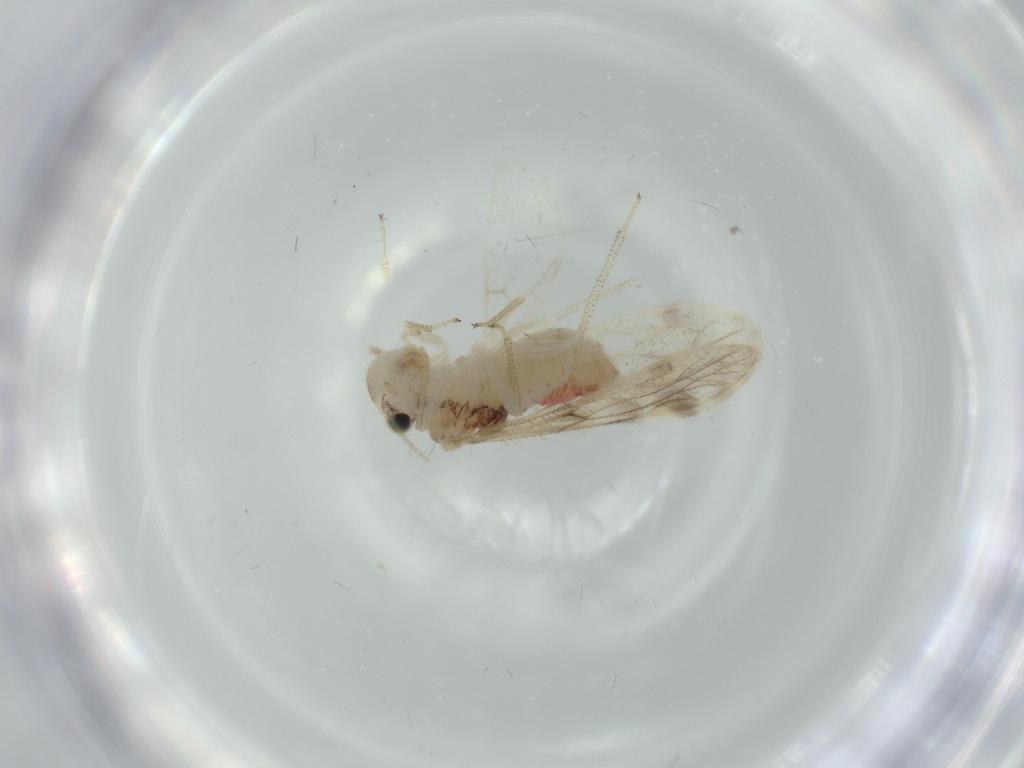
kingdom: Animalia
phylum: Arthropoda
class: Insecta
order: Psocodea
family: Pseudocaeciliidae
